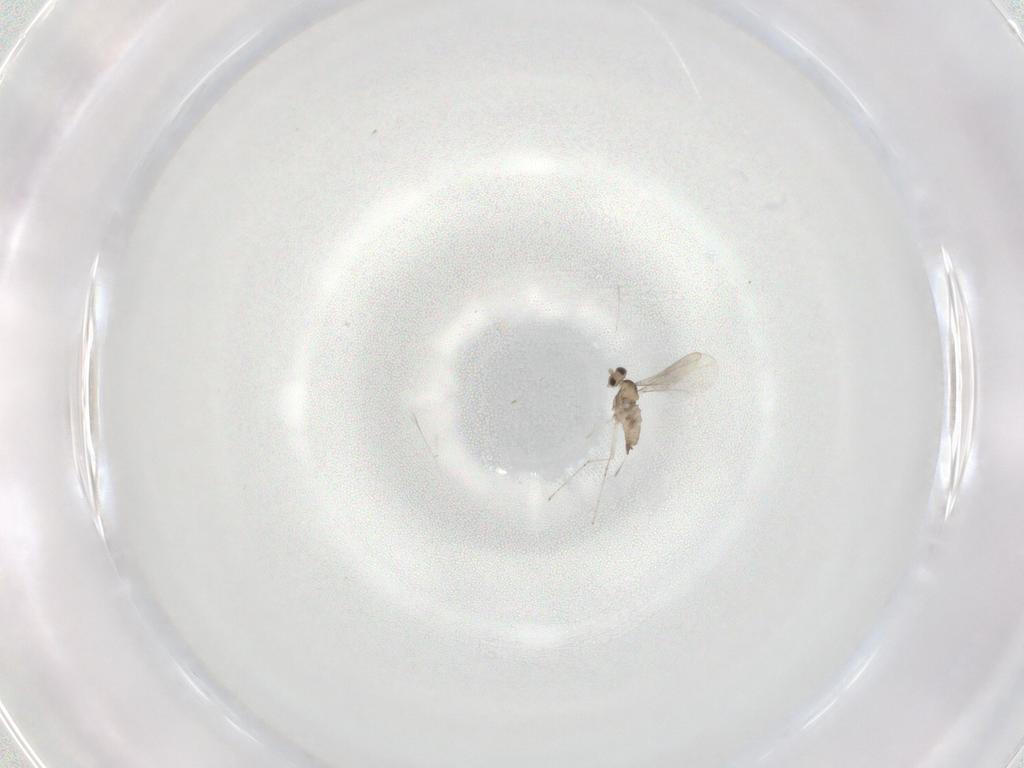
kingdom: Animalia
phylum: Arthropoda
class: Insecta
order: Diptera
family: Cecidomyiidae
